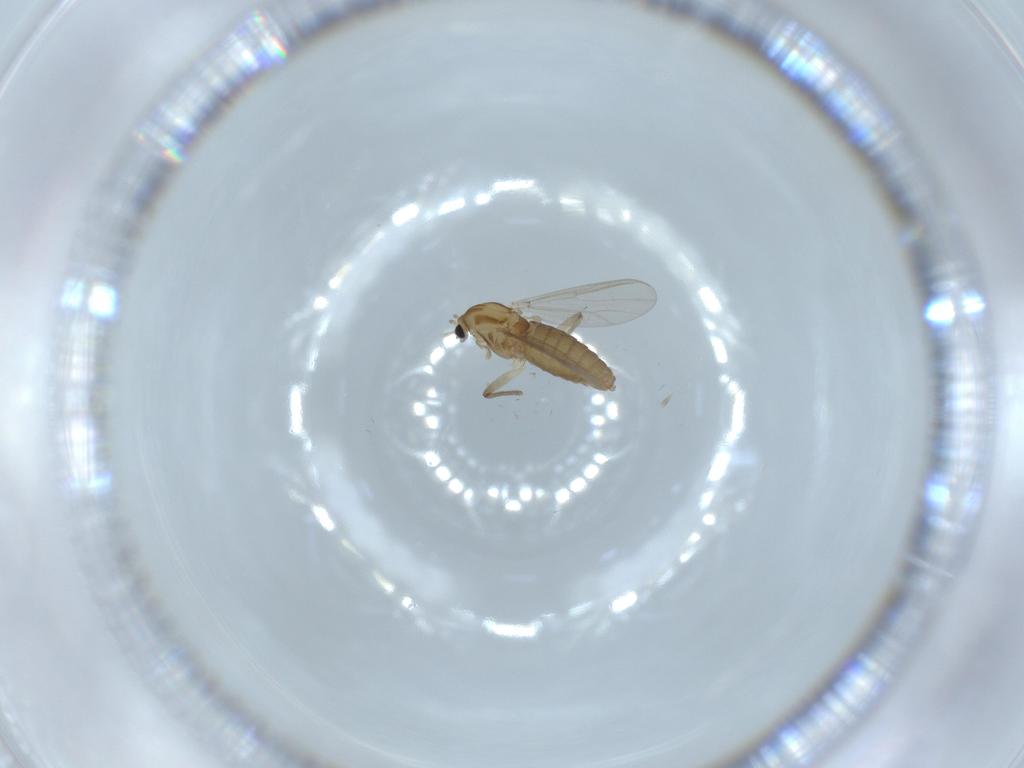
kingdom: Animalia
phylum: Arthropoda
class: Insecta
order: Diptera
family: Chironomidae
